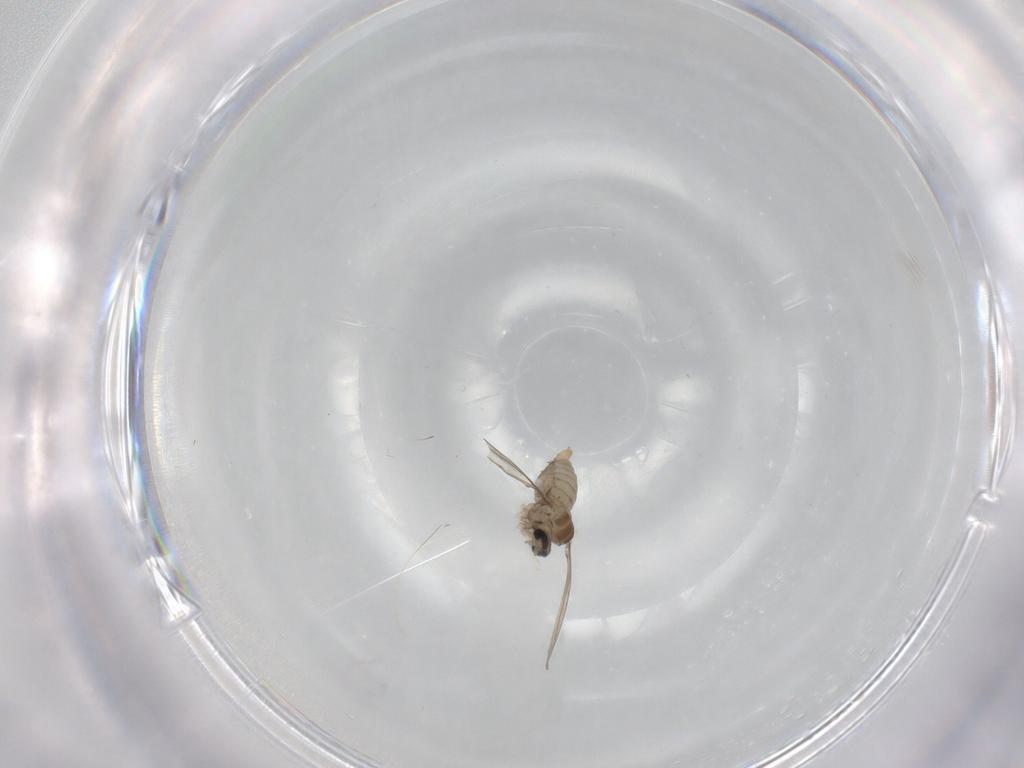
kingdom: Animalia
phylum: Arthropoda
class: Insecta
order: Diptera
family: Cecidomyiidae
